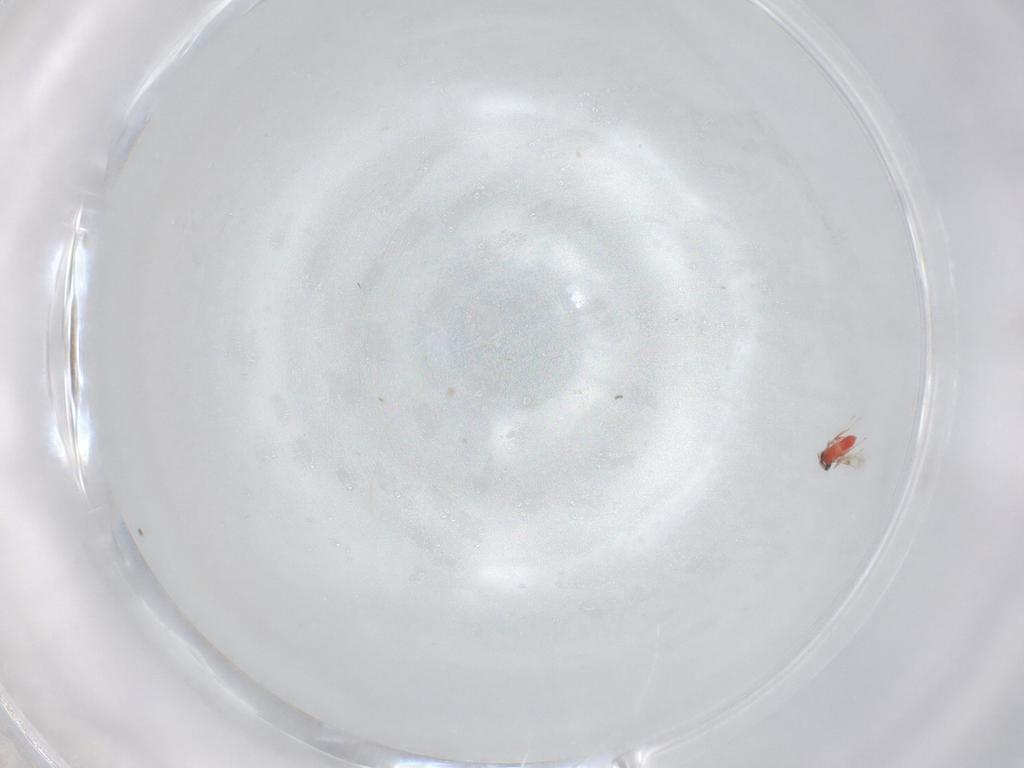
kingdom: Animalia
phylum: Arthropoda
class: Insecta
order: Hymenoptera
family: Trichogrammatidae
